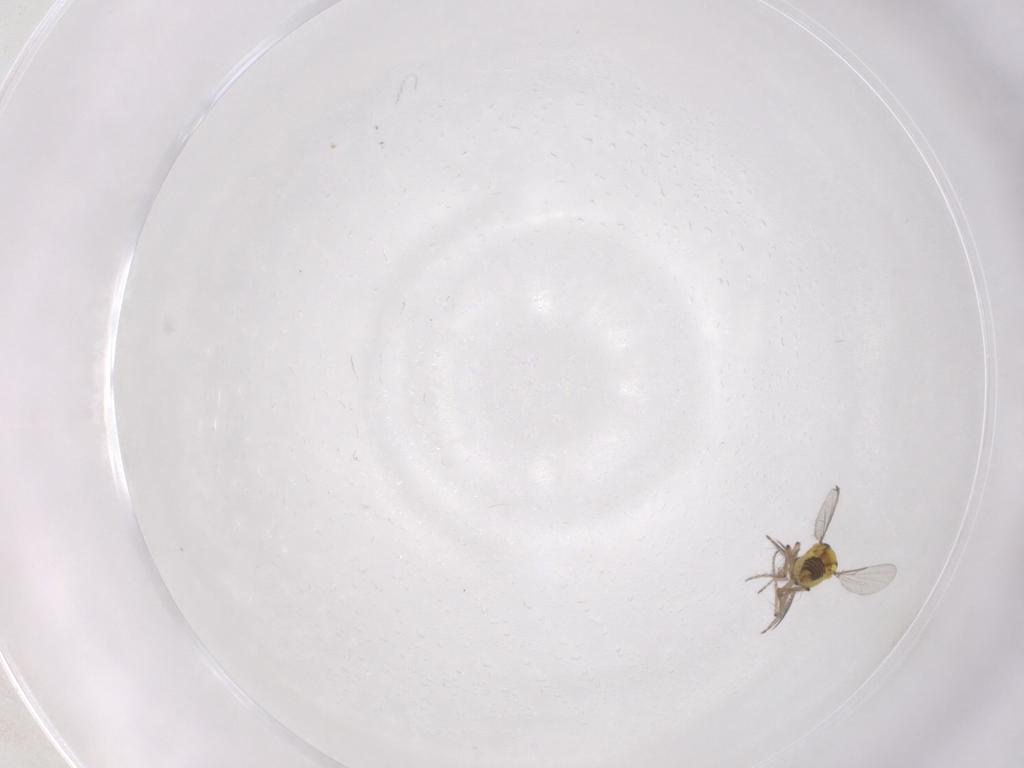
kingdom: Animalia
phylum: Arthropoda
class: Insecta
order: Diptera
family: Ceratopogonidae
